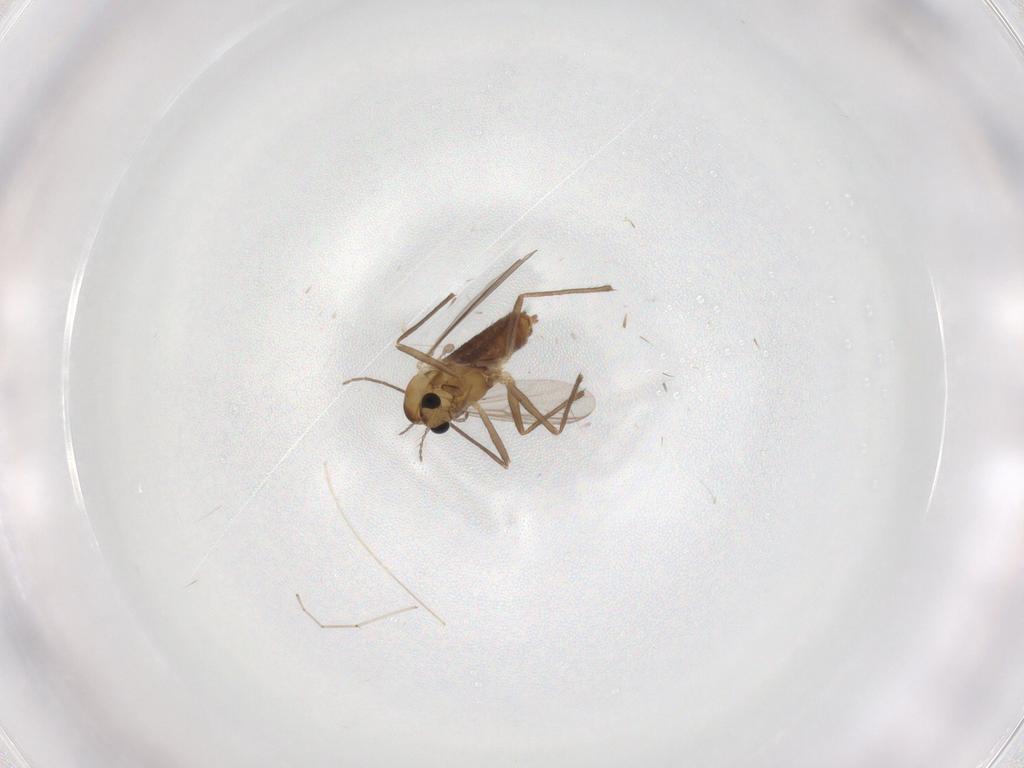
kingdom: Animalia
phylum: Arthropoda
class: Insecta
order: Diptera
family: Chironomidae
